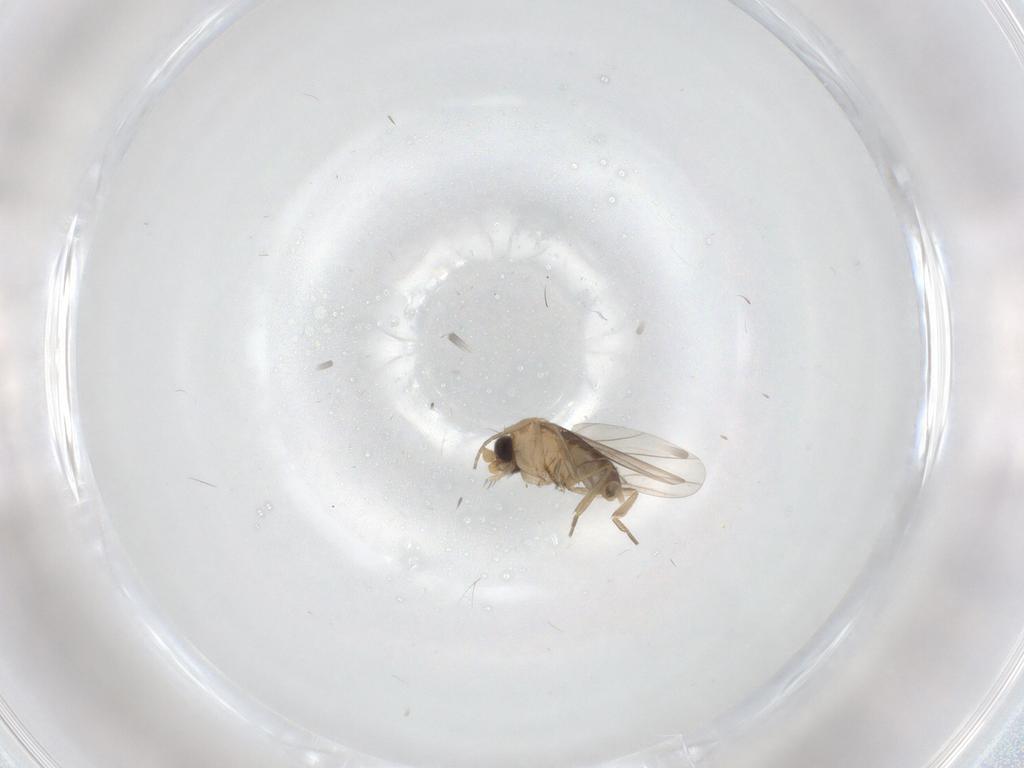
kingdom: Animalia
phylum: Arthropoda
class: Insecta
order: Diptera
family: Phoridae
